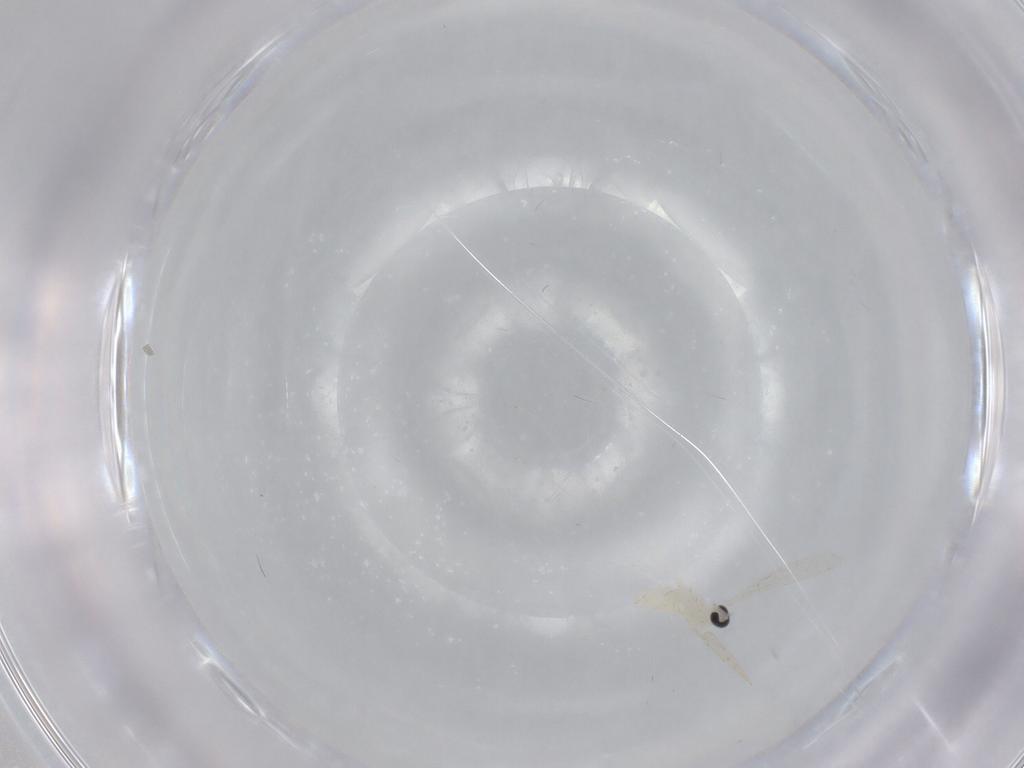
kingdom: Animalia
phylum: Arthropoda
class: Insecta
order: Diptera
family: Cecidomyiidae
